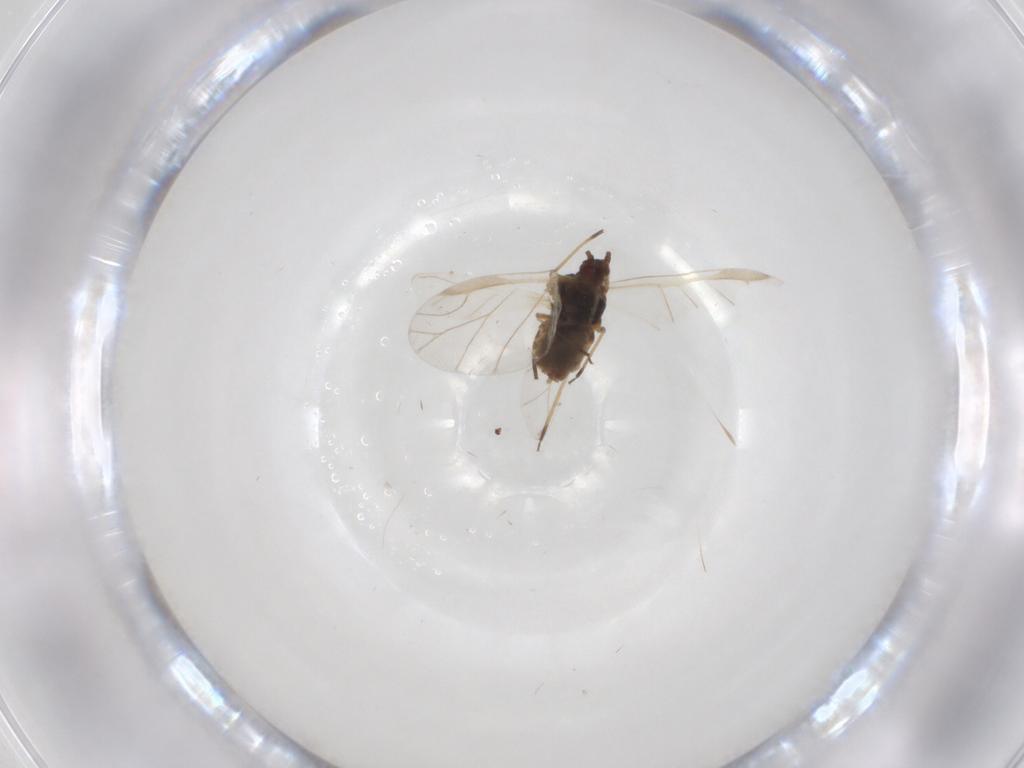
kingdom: Animalia
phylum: Arthropoda
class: Insecta
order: Hemiptera
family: Aphididae
